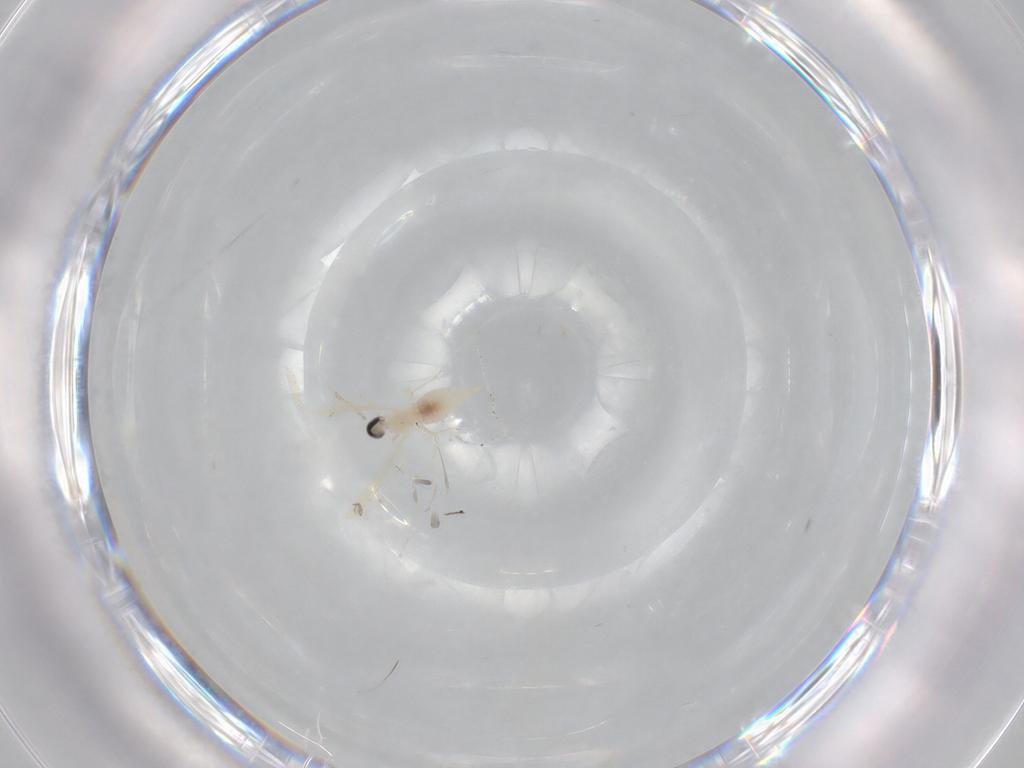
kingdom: Animalia
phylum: Arthropoda
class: Insecta
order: Diptera
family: Cecidomyiidae
